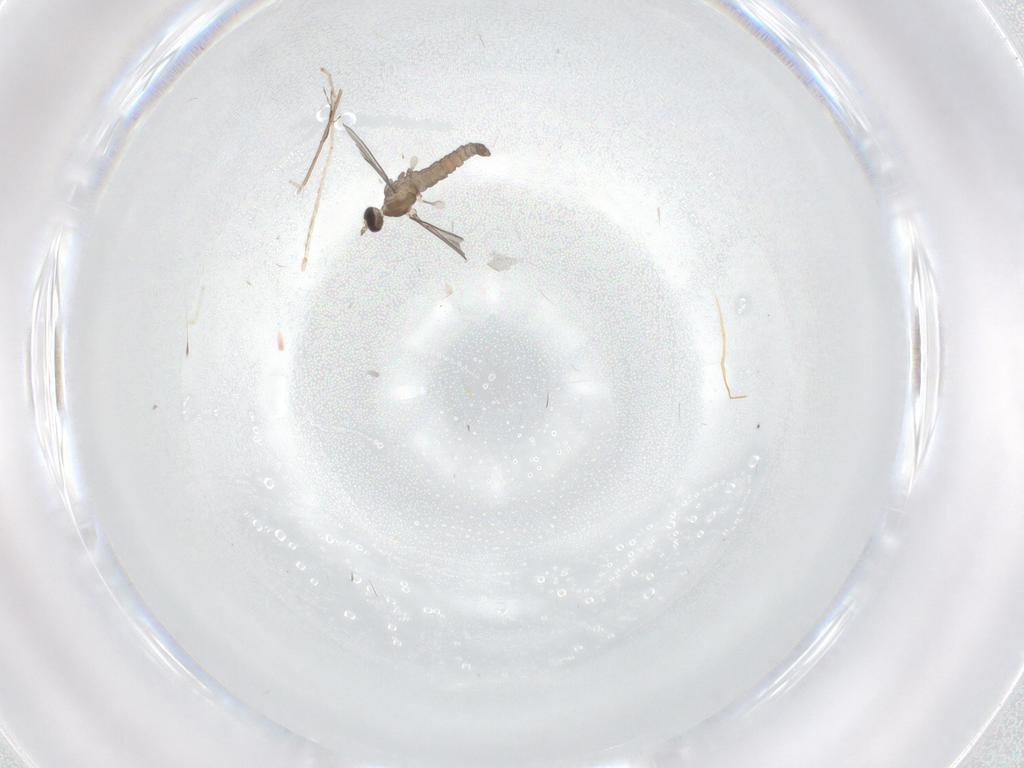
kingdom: Animalia
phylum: Arthropoda
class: Insecta
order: Diptera
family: Cecidomyiidae
